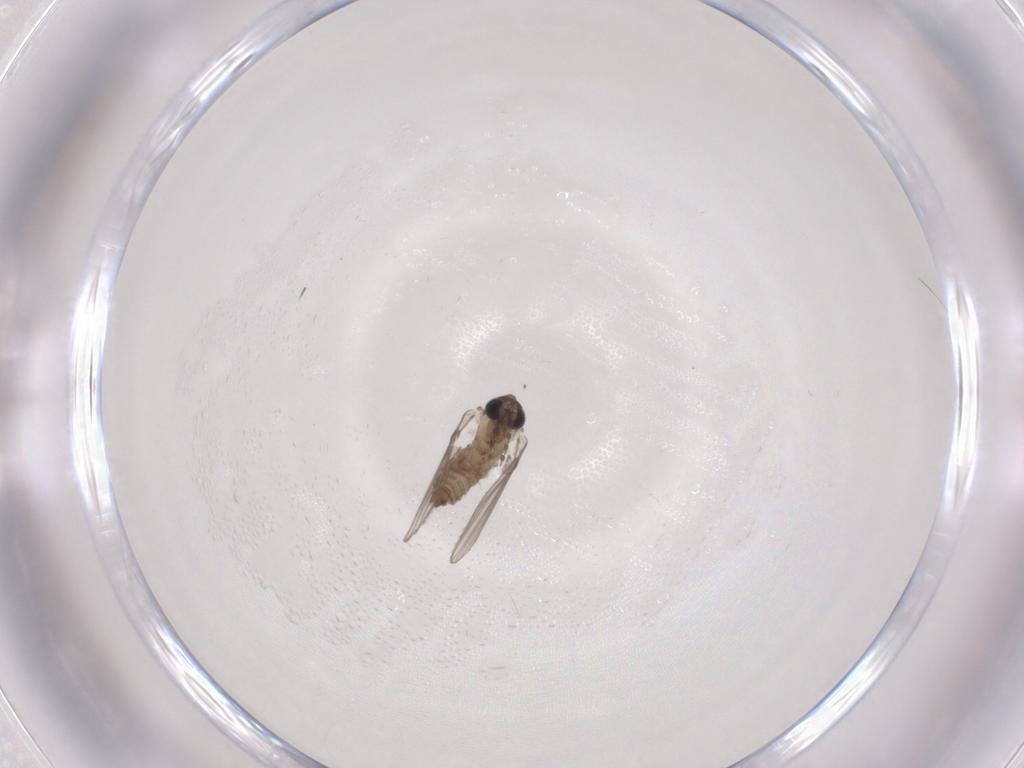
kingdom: Animalia
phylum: Arthropoda
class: Insecta
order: Diptera
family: Psychodidae
